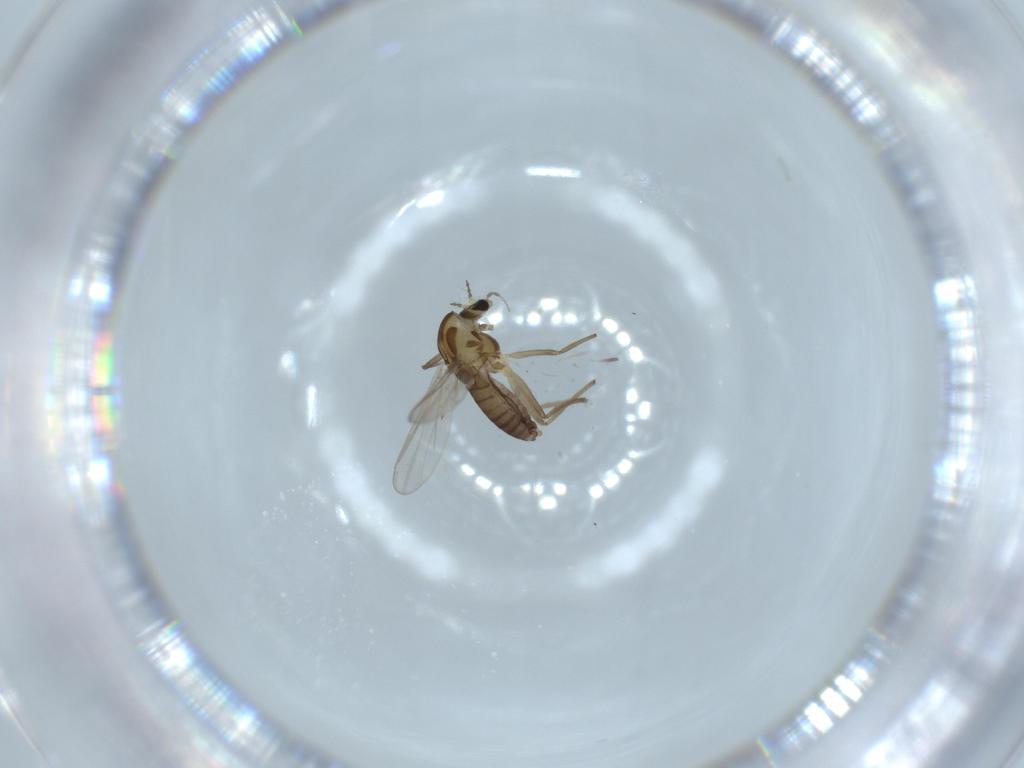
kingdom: Animalia
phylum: Arthropoda
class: Insecta
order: Diptera
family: Chironomidae
